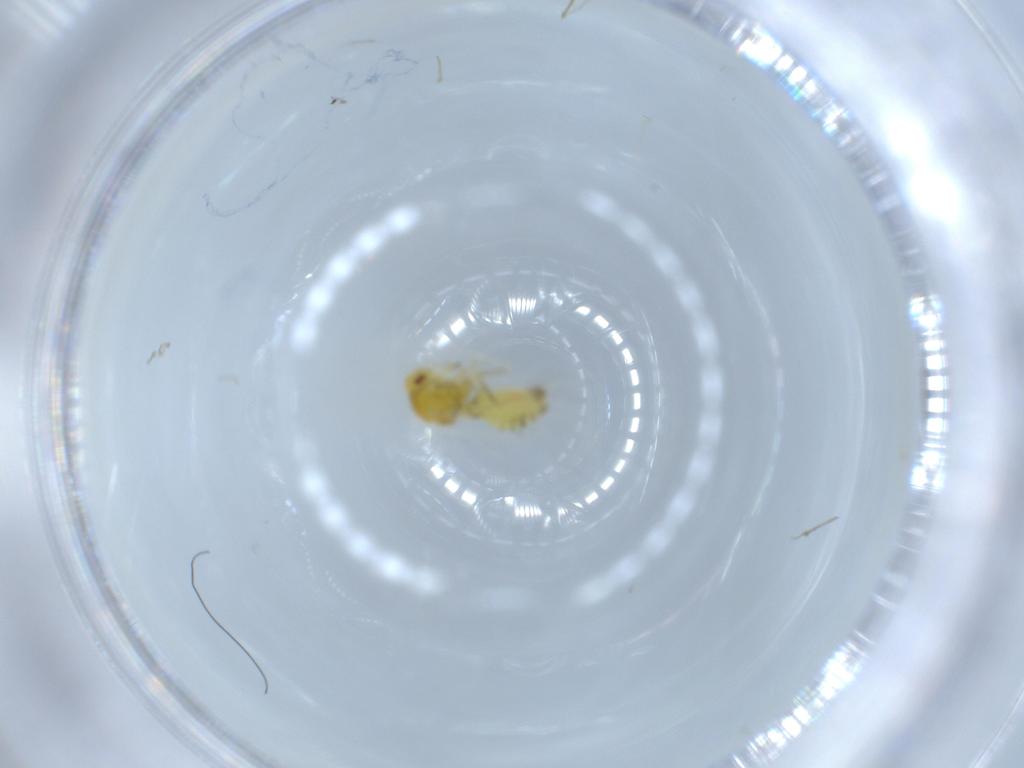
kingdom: Animalia
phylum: Arthropoda
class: Insecta
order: Hemiptera
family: Aleyrodidae
